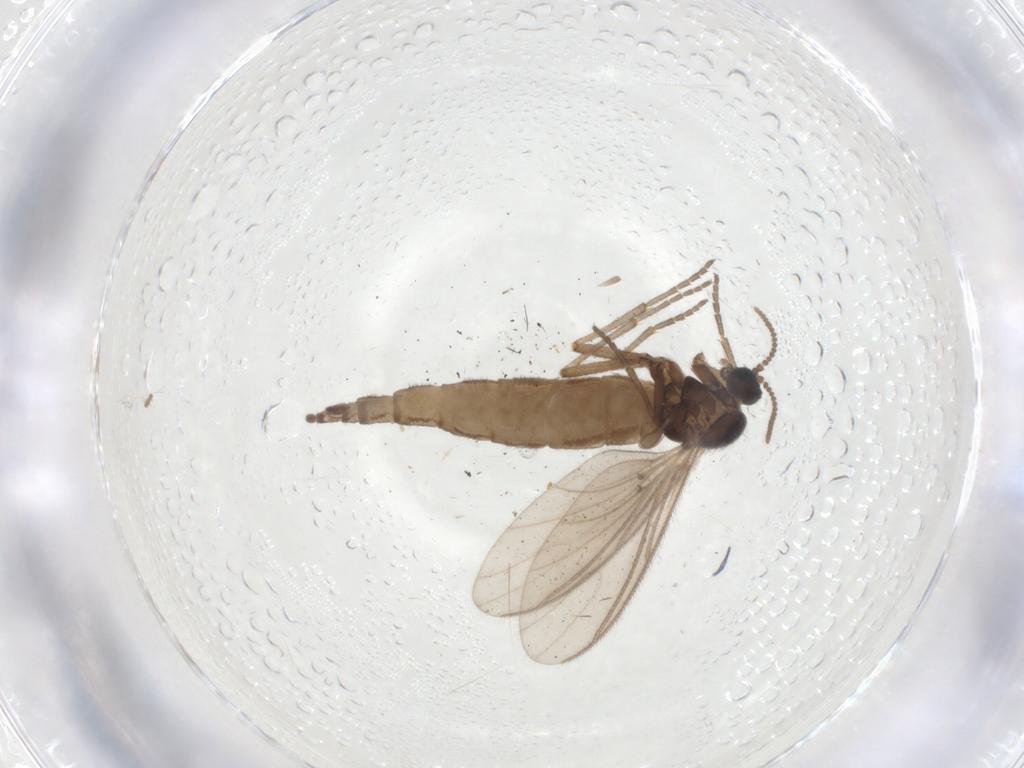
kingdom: Animalia
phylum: Arthropoda
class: Insecta
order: Diptera
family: Sciaridae
